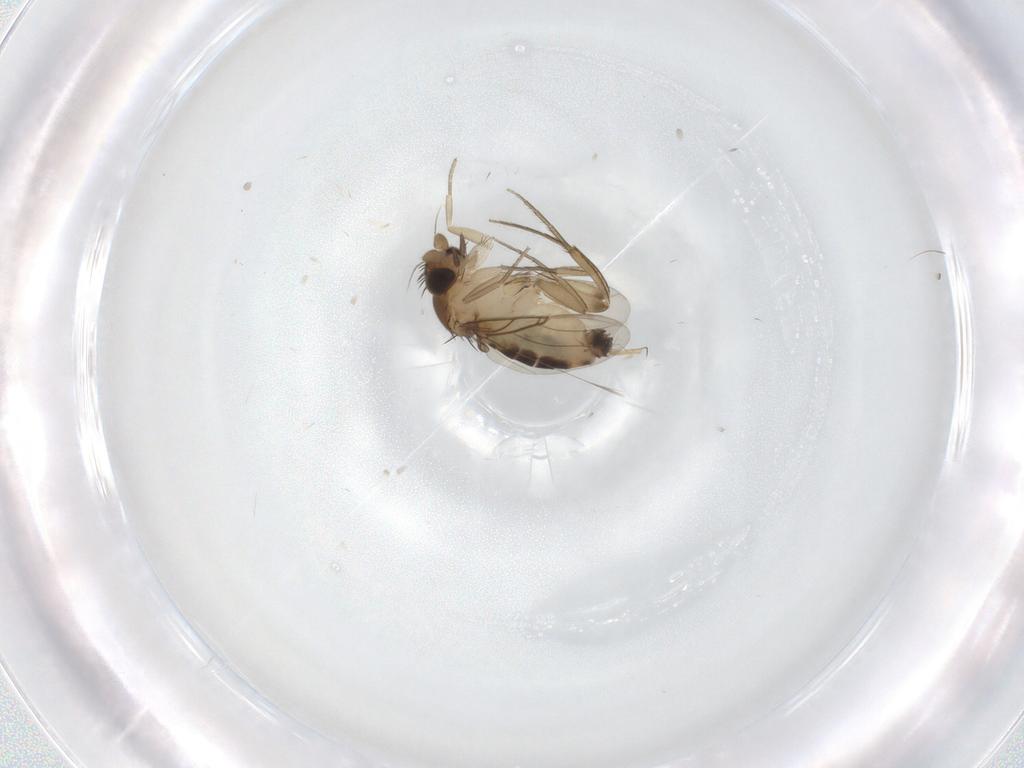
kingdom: Animalia
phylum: Arthropoda
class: Insecta
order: Diptera
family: Phoridae
